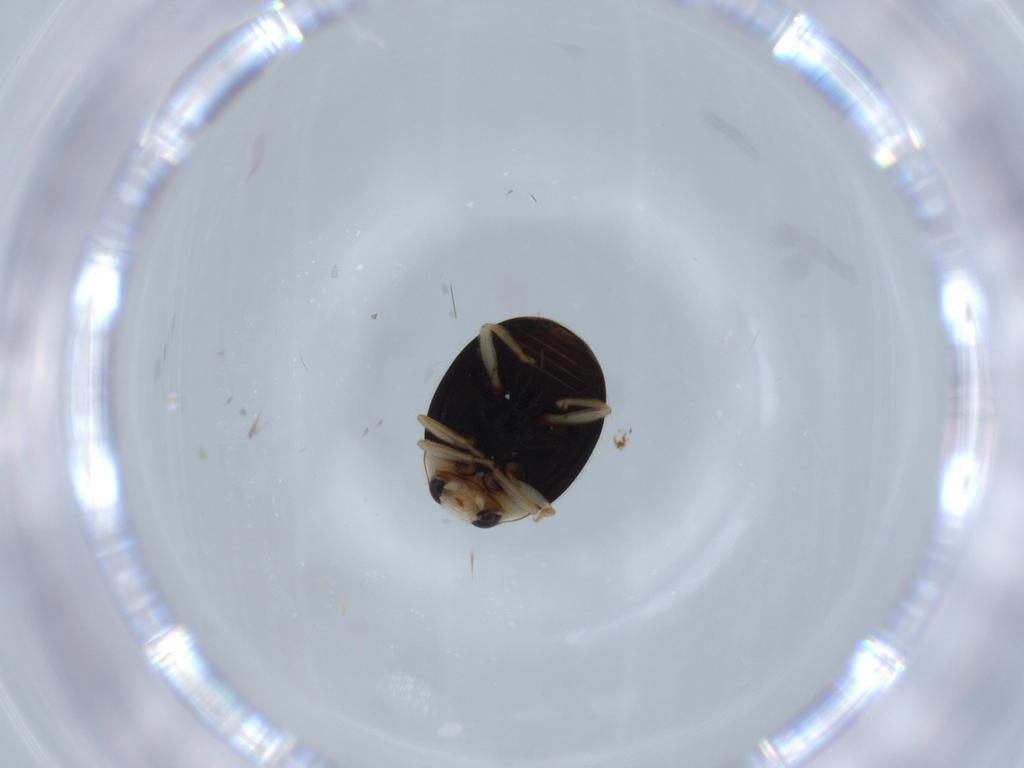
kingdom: Animalia
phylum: Arthropoda
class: Insecta
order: Coleoptera
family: Coccinellidae
